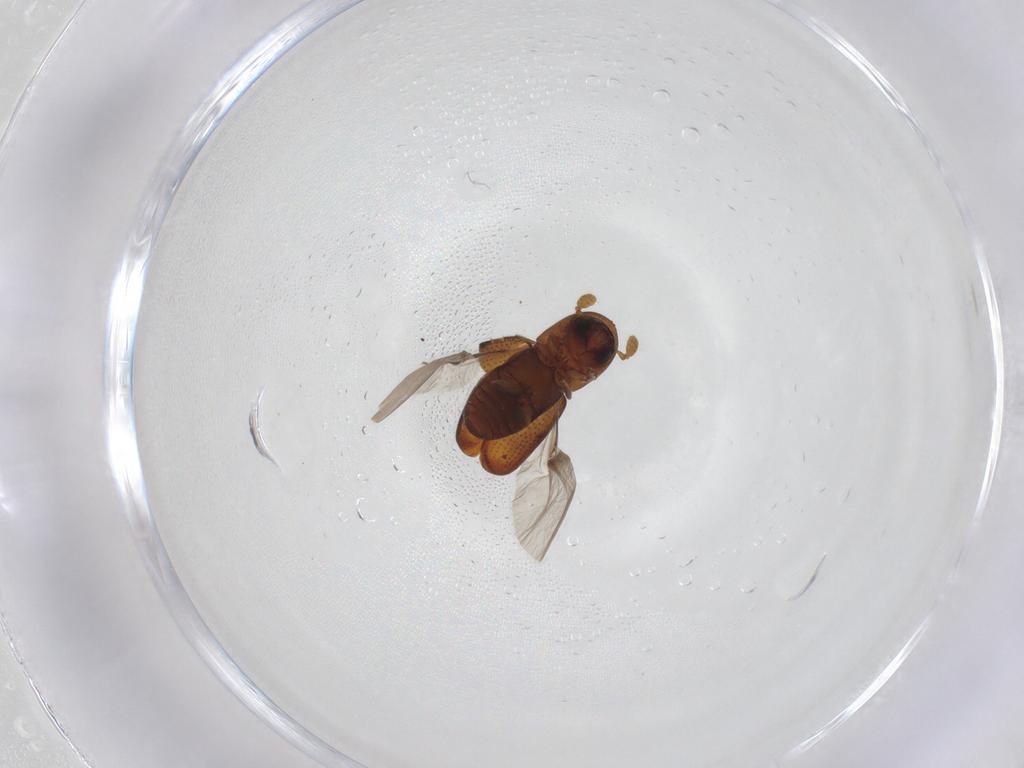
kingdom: Animalia
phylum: Arthropoda
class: Insecta
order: Coleoptera
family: Curculionidae
